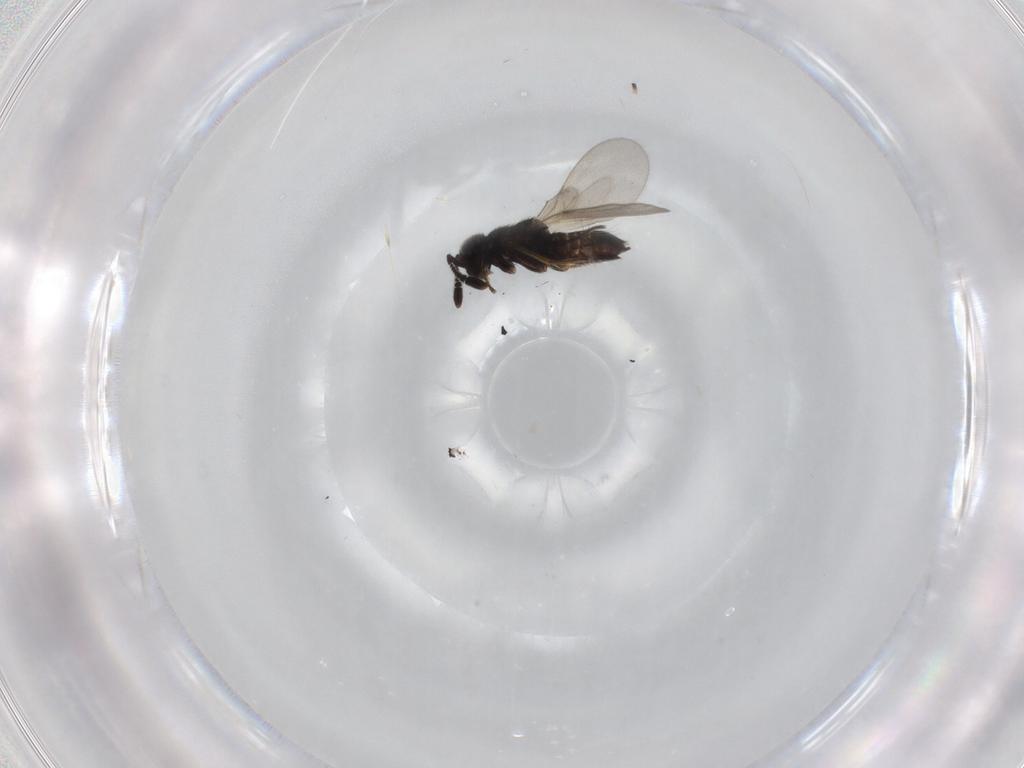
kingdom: Animalia
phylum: Arthropoda
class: Insecta
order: Hymenoptera
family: Encyrtidae
